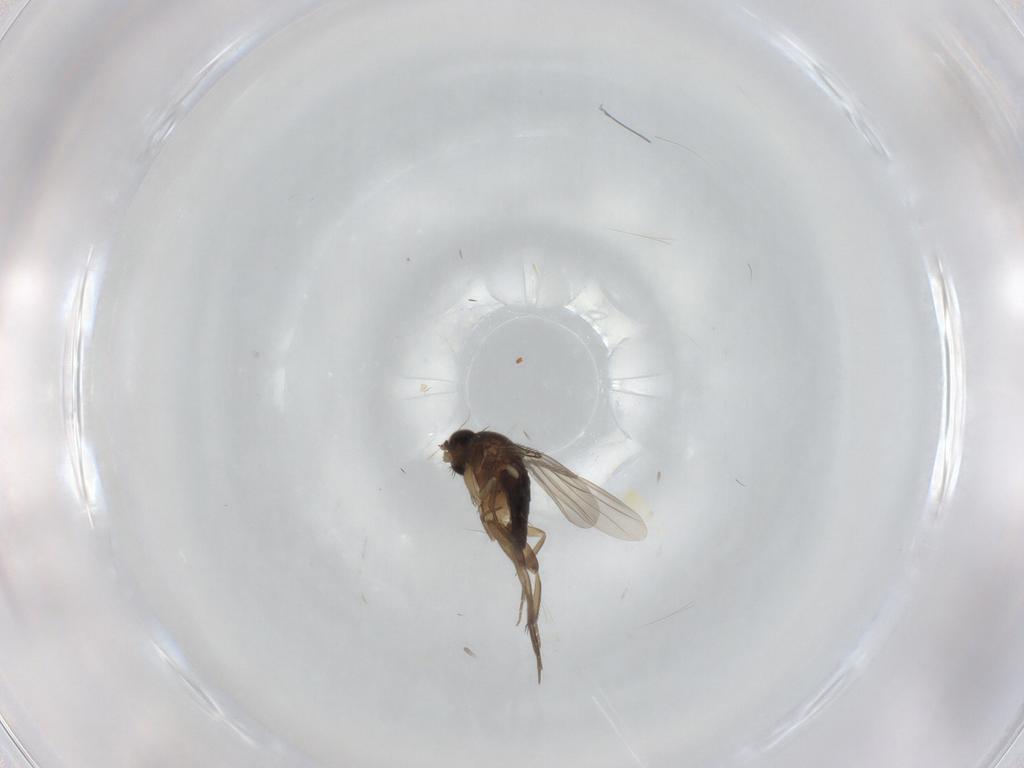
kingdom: Animalia
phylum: Arthropoda
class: Insecta
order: Diptera
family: Phoridae
